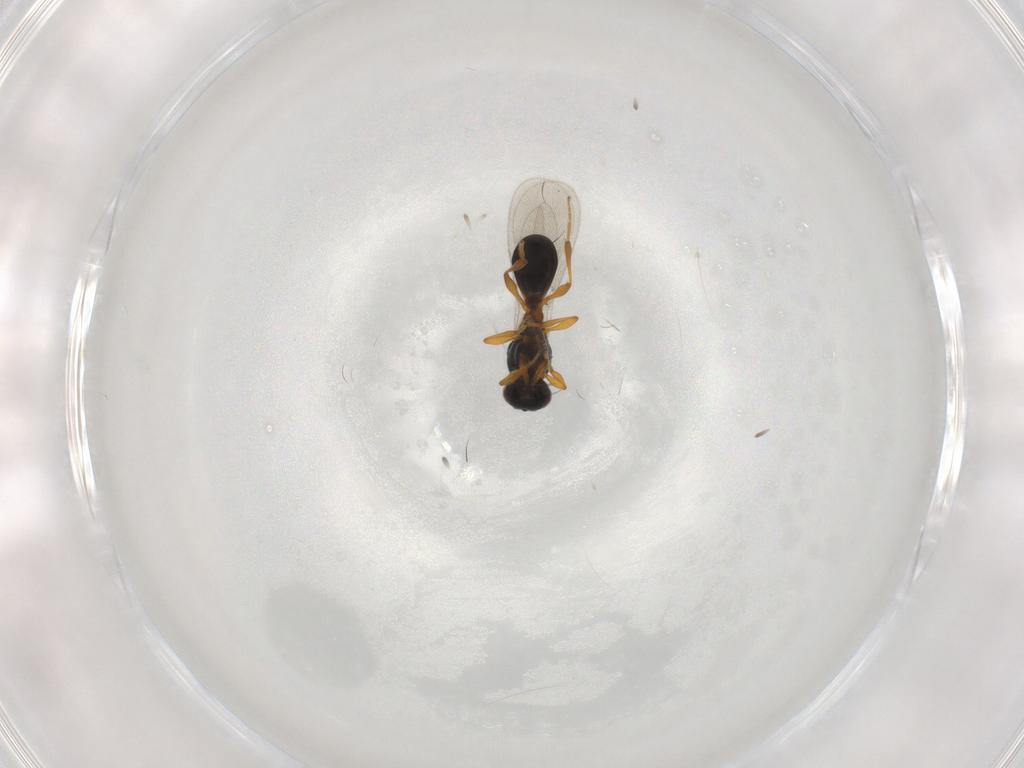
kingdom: Animalia
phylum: Arthropoda
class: Insecta
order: Hymenoptera
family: Platygastridae
